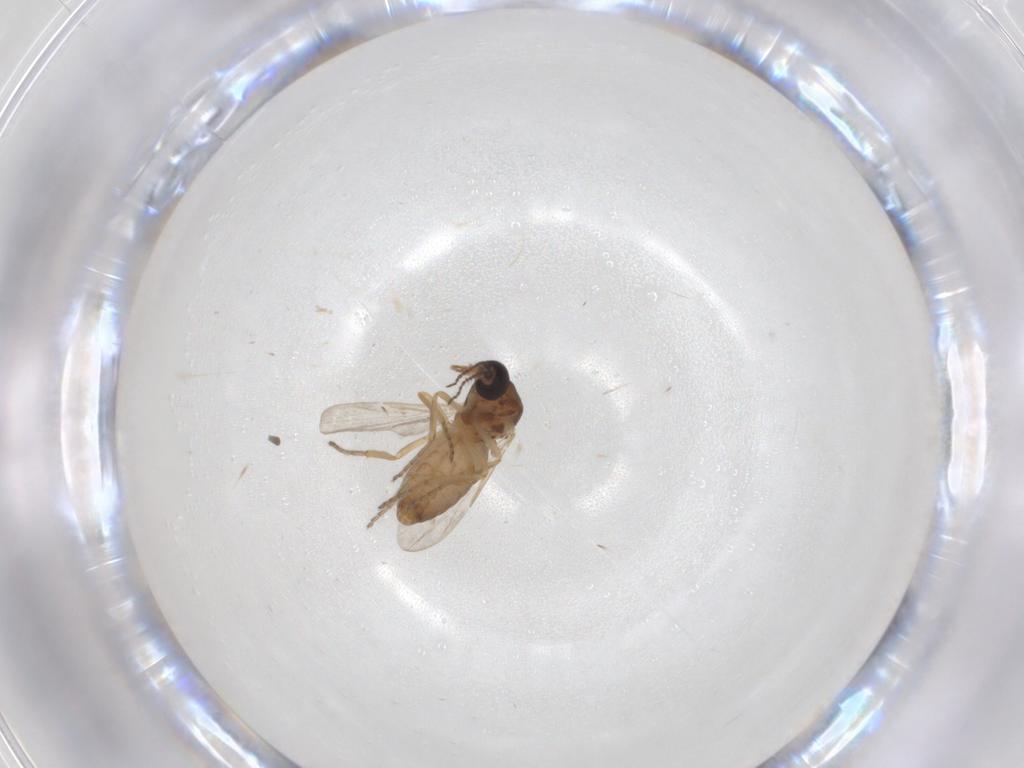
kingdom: Animalia
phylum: Arthropoda
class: Insecta
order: Diptera
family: Ceratopogonidae
